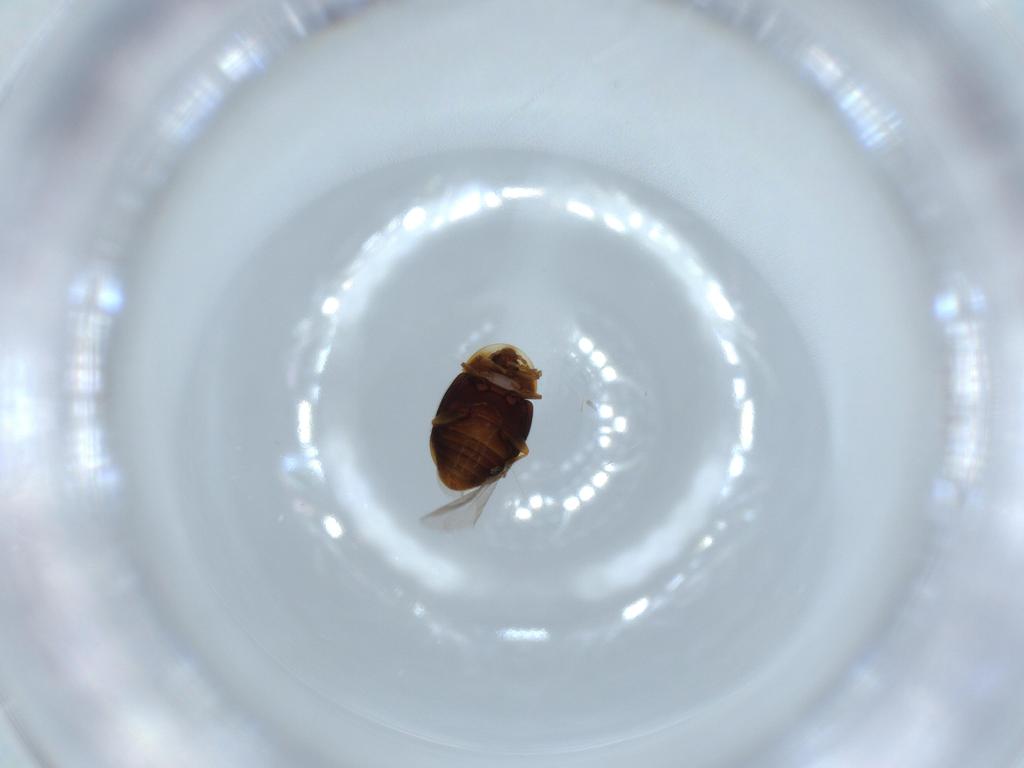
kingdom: Animalia
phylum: Arthropoda
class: Insecta
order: Coleoptera
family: Corylophidae
